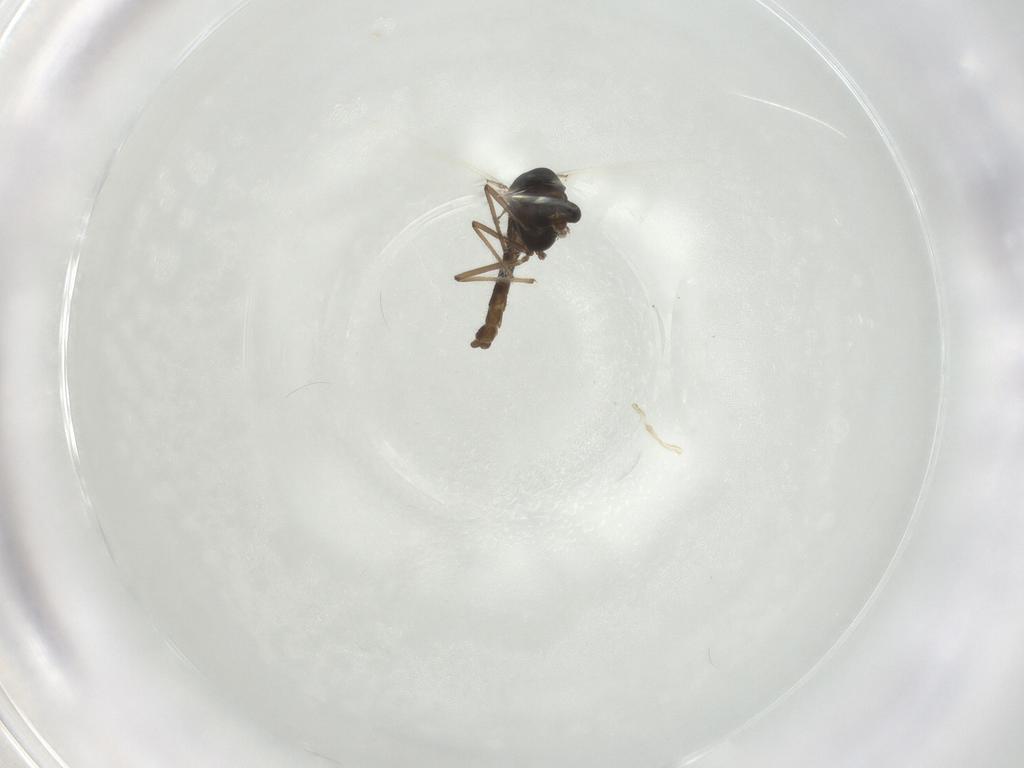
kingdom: Animalia
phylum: Arthropoda
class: Insecta
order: Diptera
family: Chironomidae
